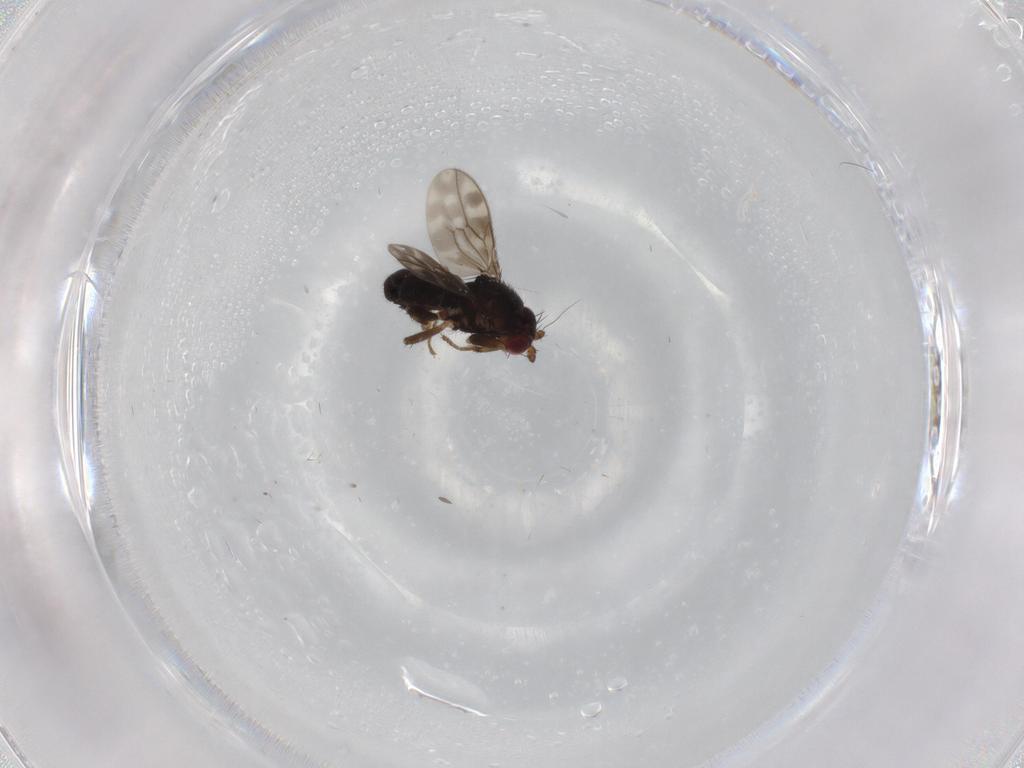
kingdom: Animalia
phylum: Arthropoda
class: Insecta
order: Diptera
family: Sphaeroceridae
